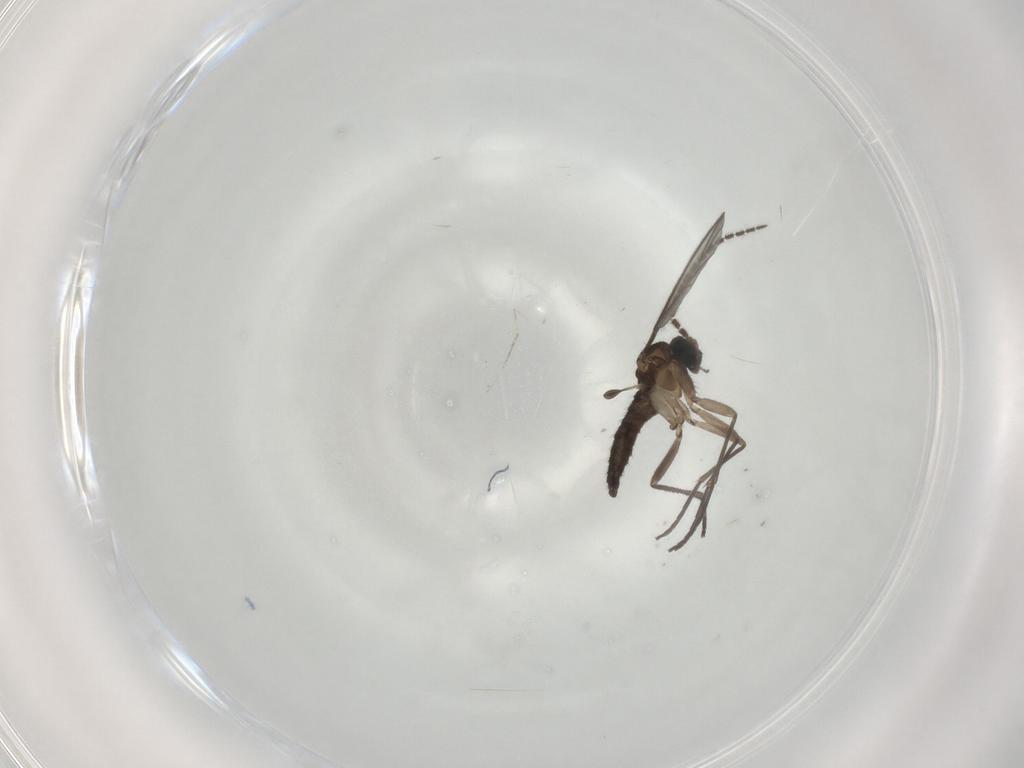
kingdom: Animalia
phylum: Arthropoda
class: Insecta
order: Diptera
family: Sciaridae
